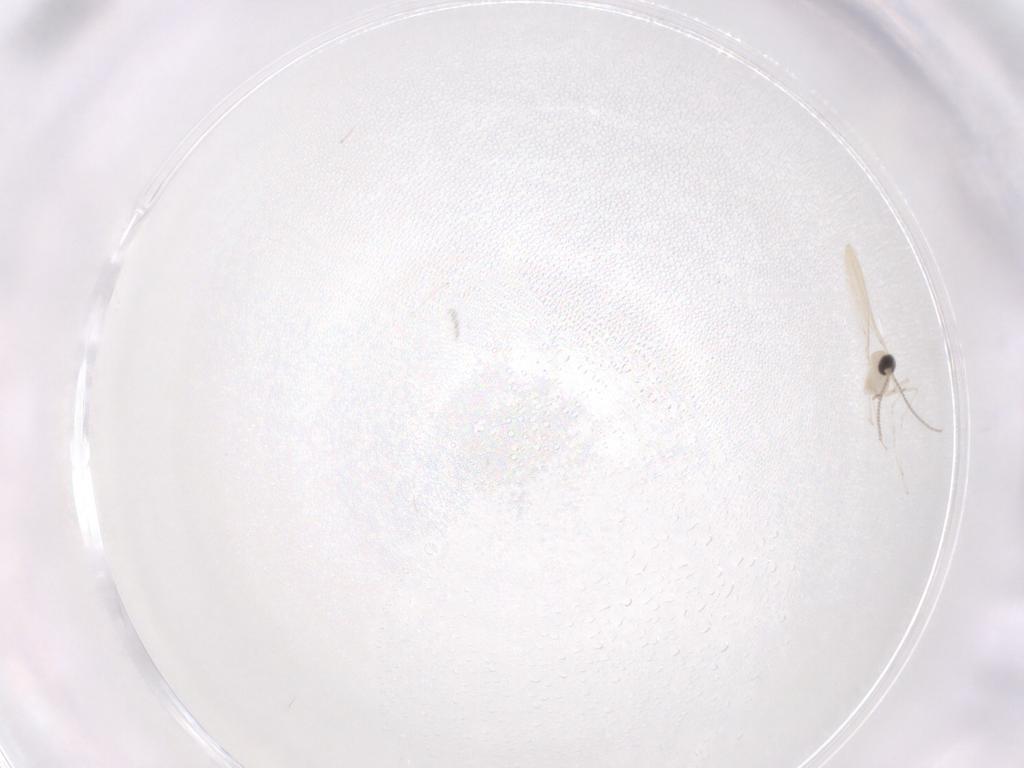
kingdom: Animalia
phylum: Arthropoda
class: Insecta
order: Diptera
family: Cecidomyiidae
